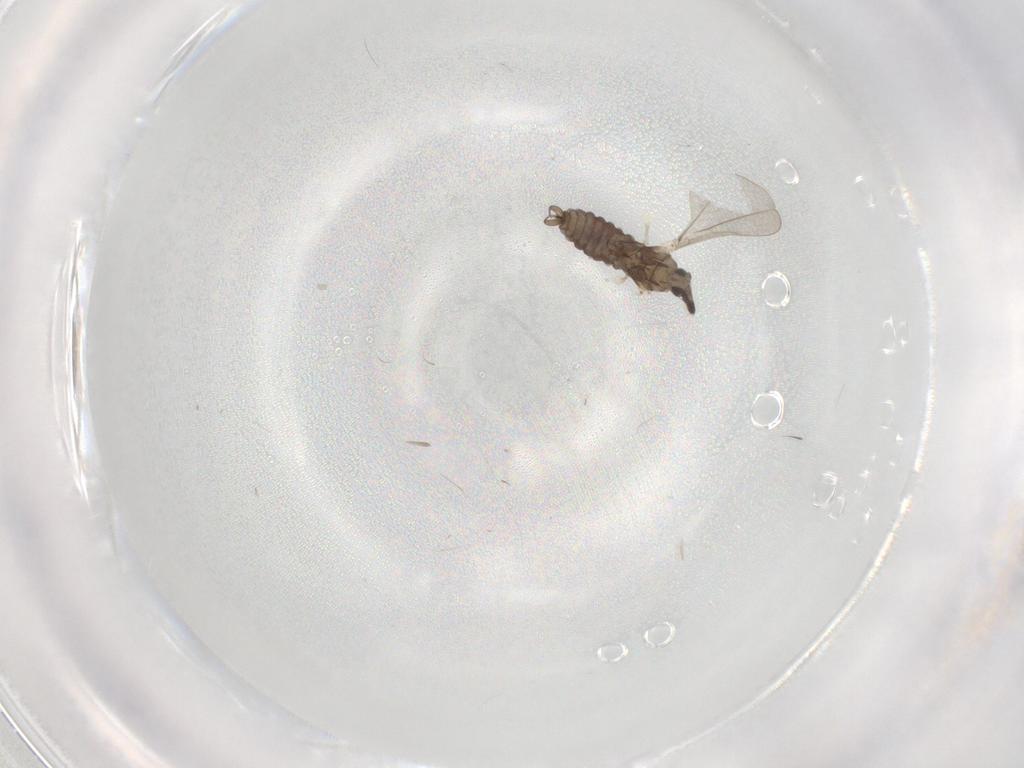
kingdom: Animalia
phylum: Arthropoda
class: Insecta
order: Diptera
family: Cecidomyiidae
